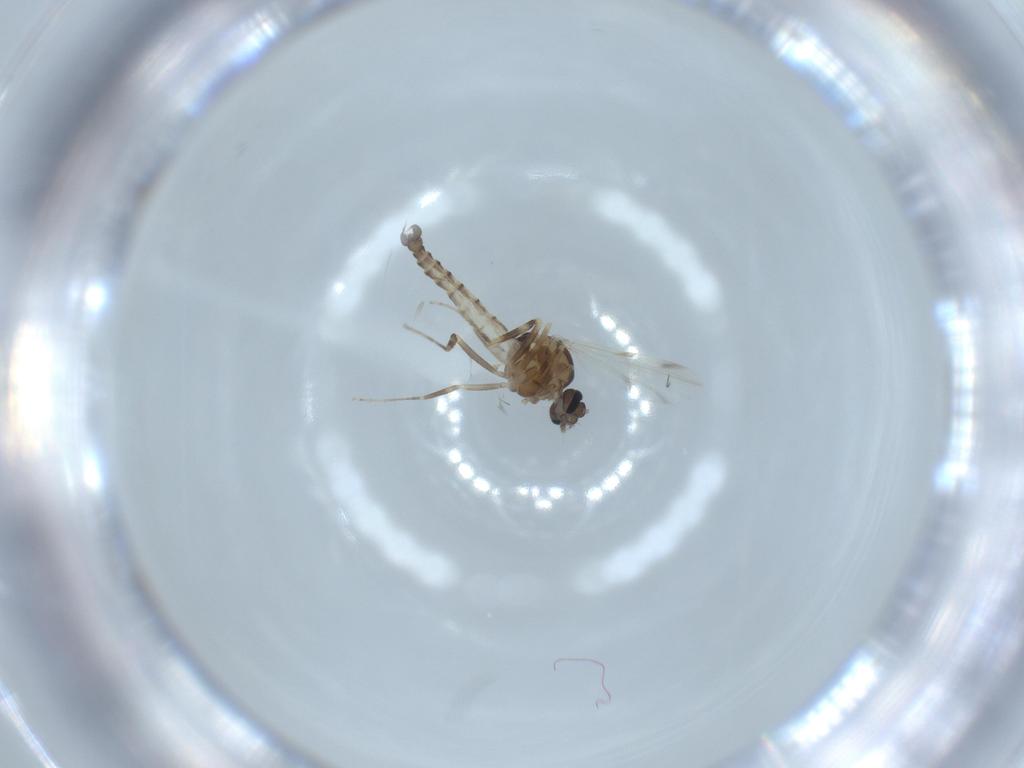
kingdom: Animalia
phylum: Arthropoda
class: Insecta
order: Diptera
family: Ceratopogonidae
